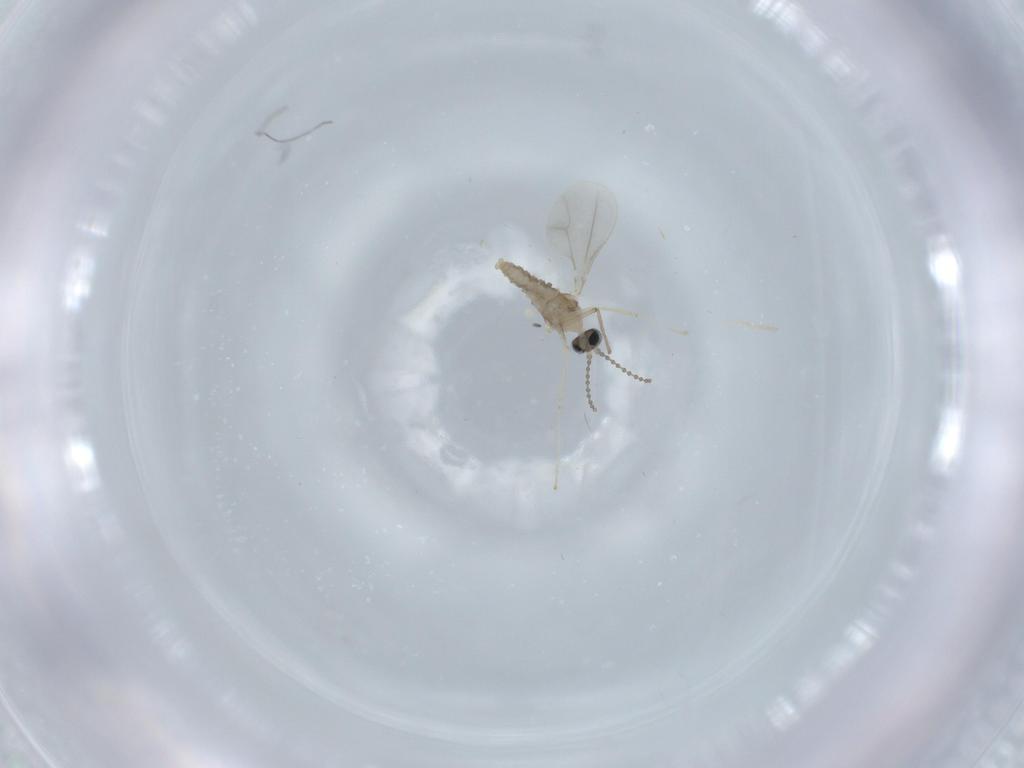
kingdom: Animalia
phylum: Arthropoda
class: Insecta
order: Diptera
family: Cecidomyiidae
